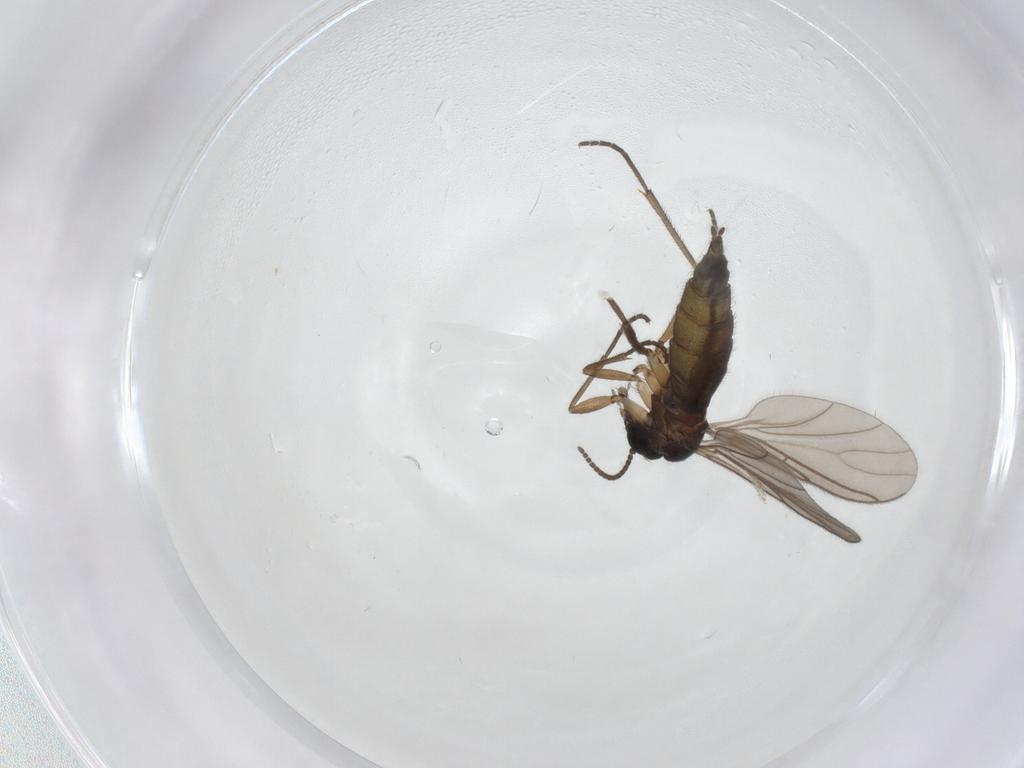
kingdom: Animalia
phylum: Arthropoda
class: Insecta
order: Diptera
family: Sciaridae
